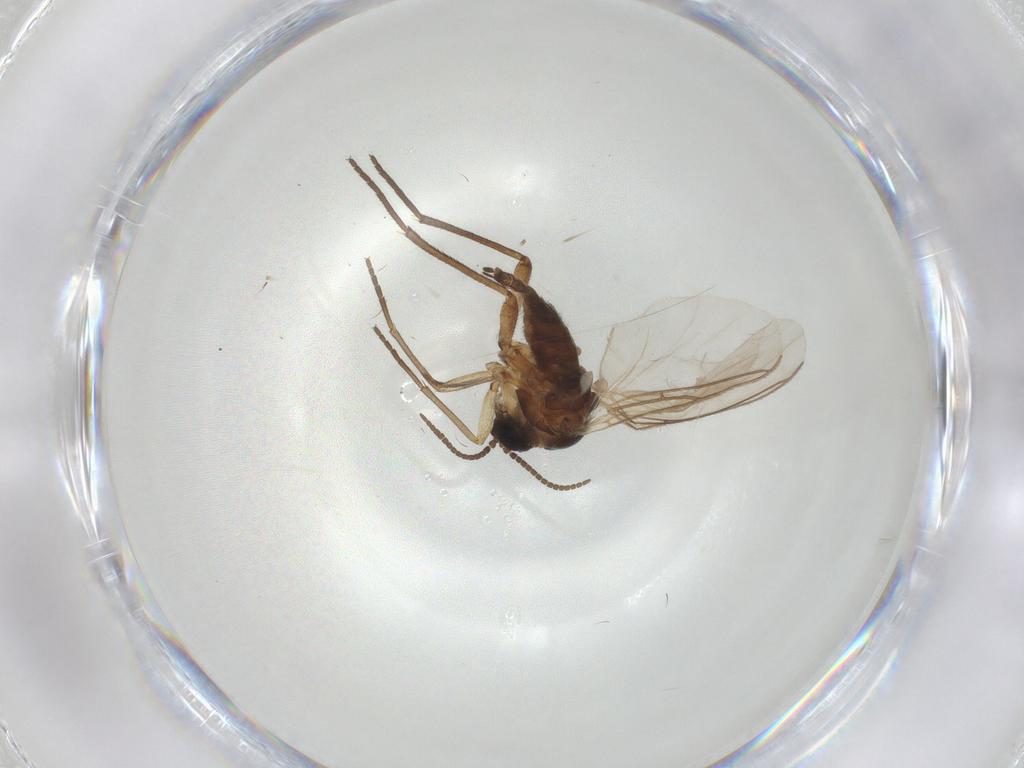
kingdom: Animalia
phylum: Arthropoda
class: Insecta
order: Diptera
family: Sciaridae
